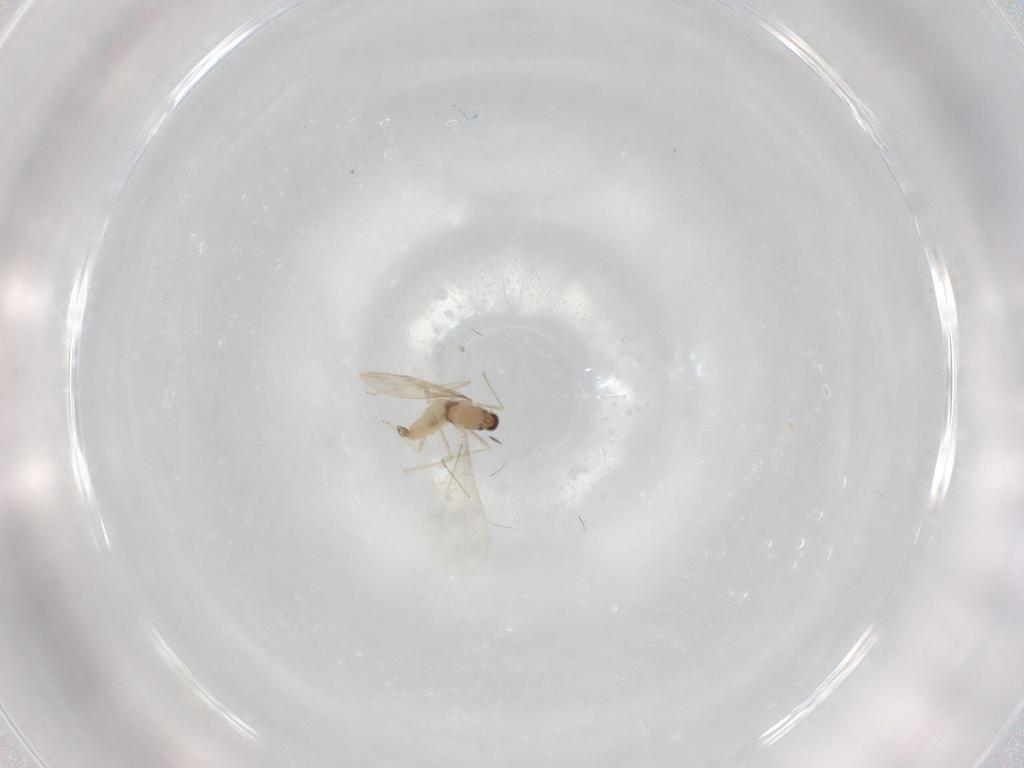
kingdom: Animalia
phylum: Arthropoda
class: Insecta
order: Diptera
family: Cecidomyiidae
